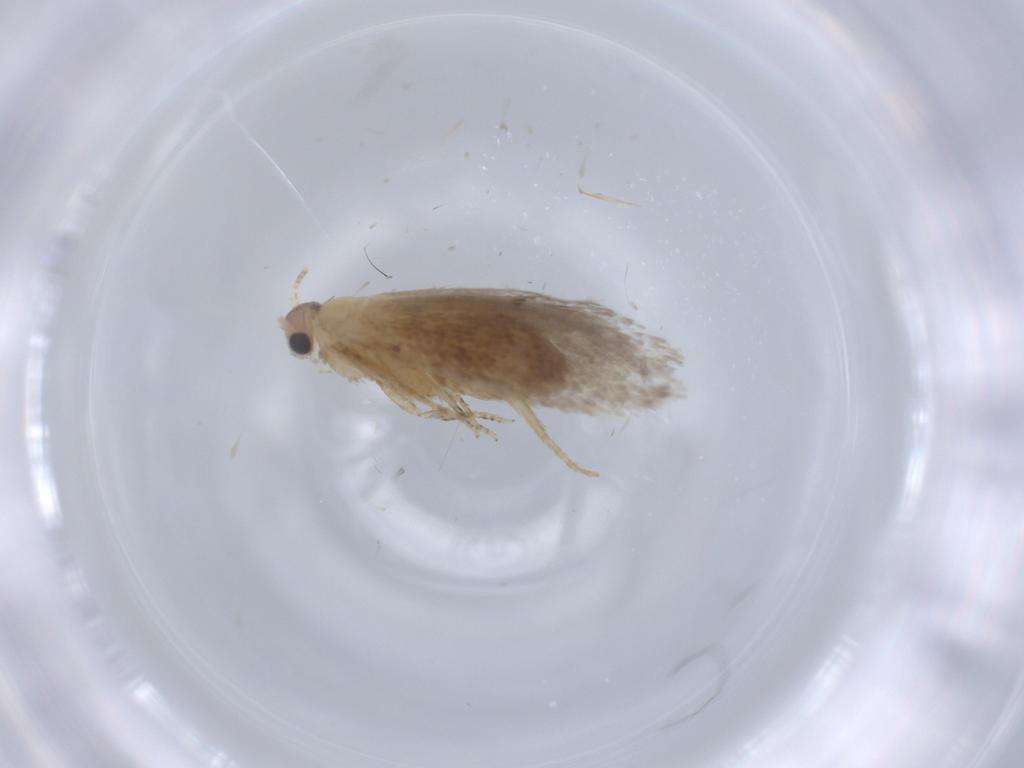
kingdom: Animalia
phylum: Arthropoda
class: Insecta
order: Lepidoptera
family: Tineidae
